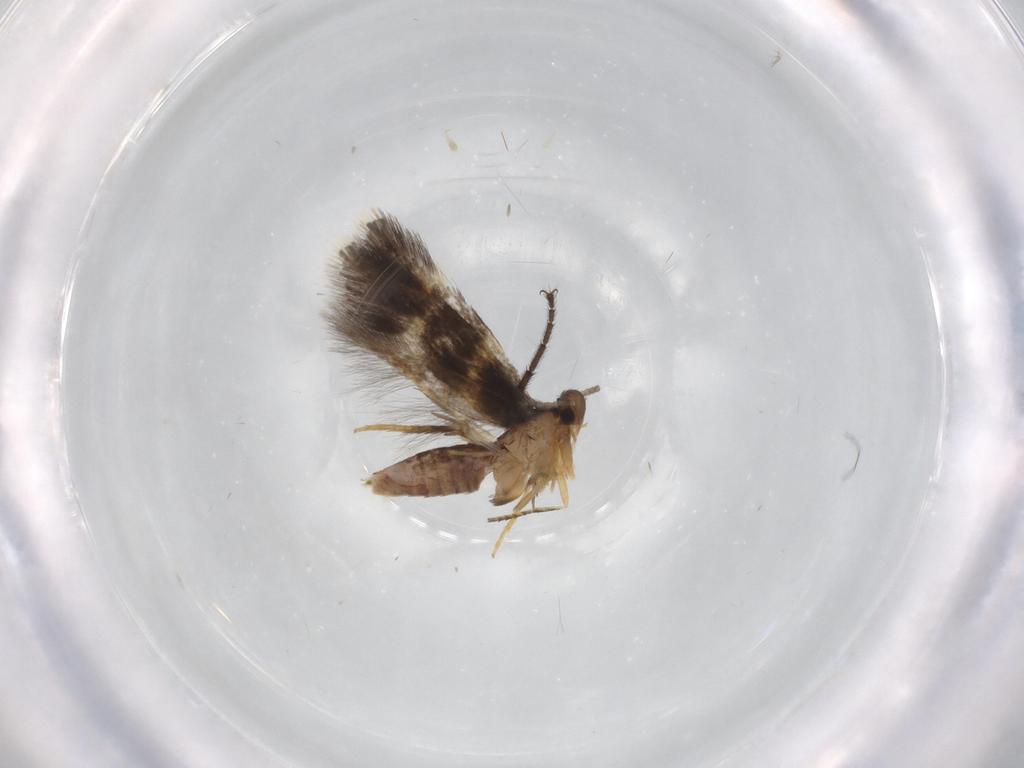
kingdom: Animalia
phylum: Arthropoda
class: Insecta
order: Lepidoptera
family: Heliozelidae
